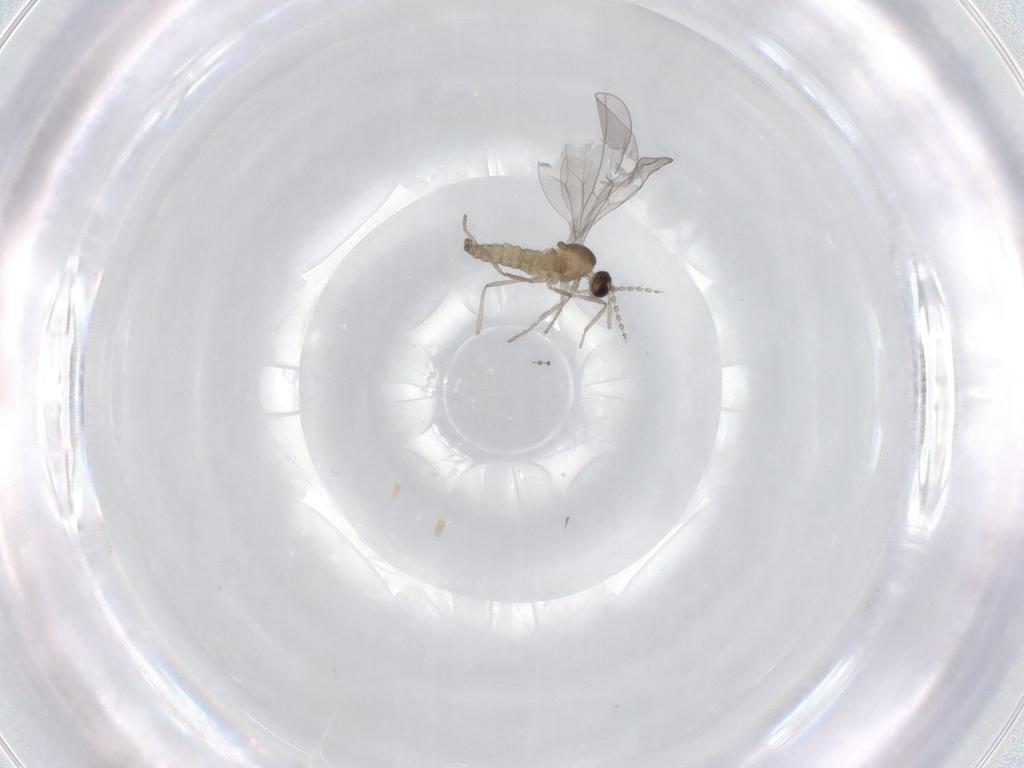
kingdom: Animalia
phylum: Arthropoda
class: Insecta
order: Diptera
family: Cecidomyiidae
